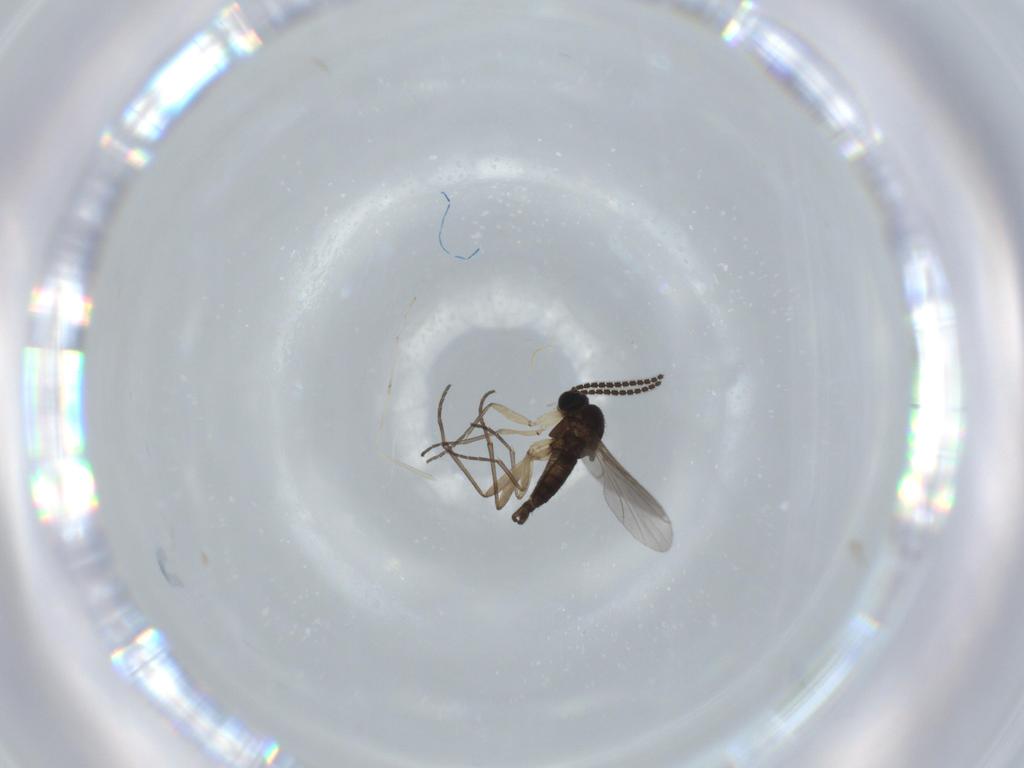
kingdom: Animalia
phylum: Arthropoda
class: Insecta
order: Diptera
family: Sciaridae
